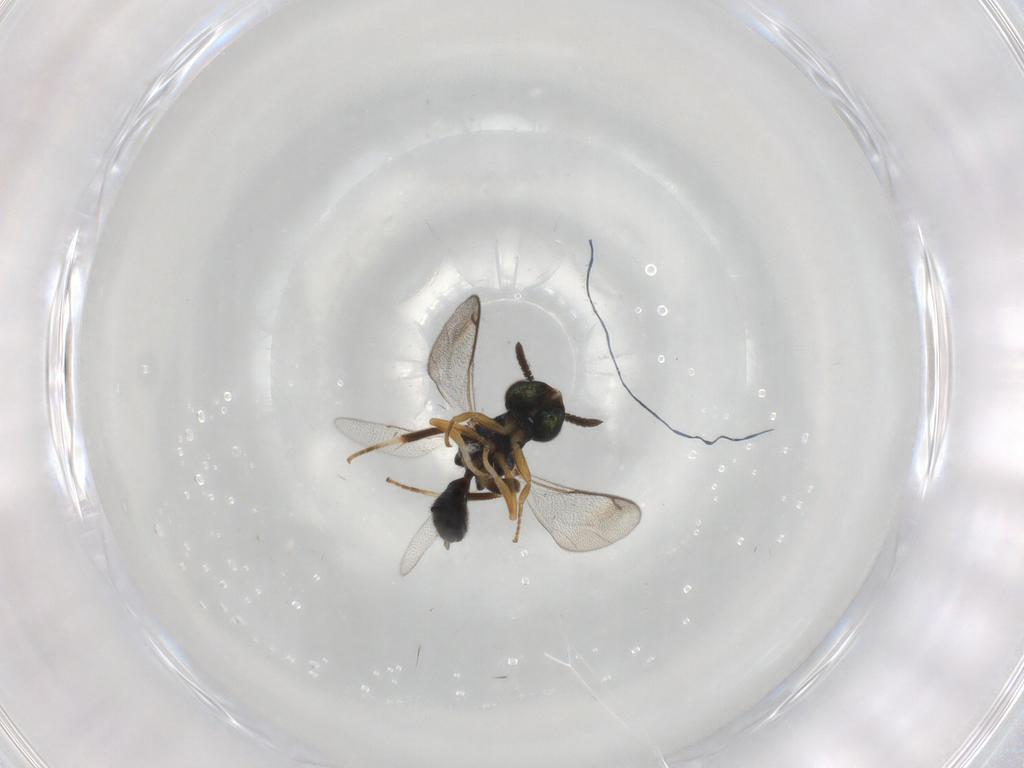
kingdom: Animalia
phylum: Arthropoda
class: Insecta
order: Hymenoptera
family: Cleonyminae
